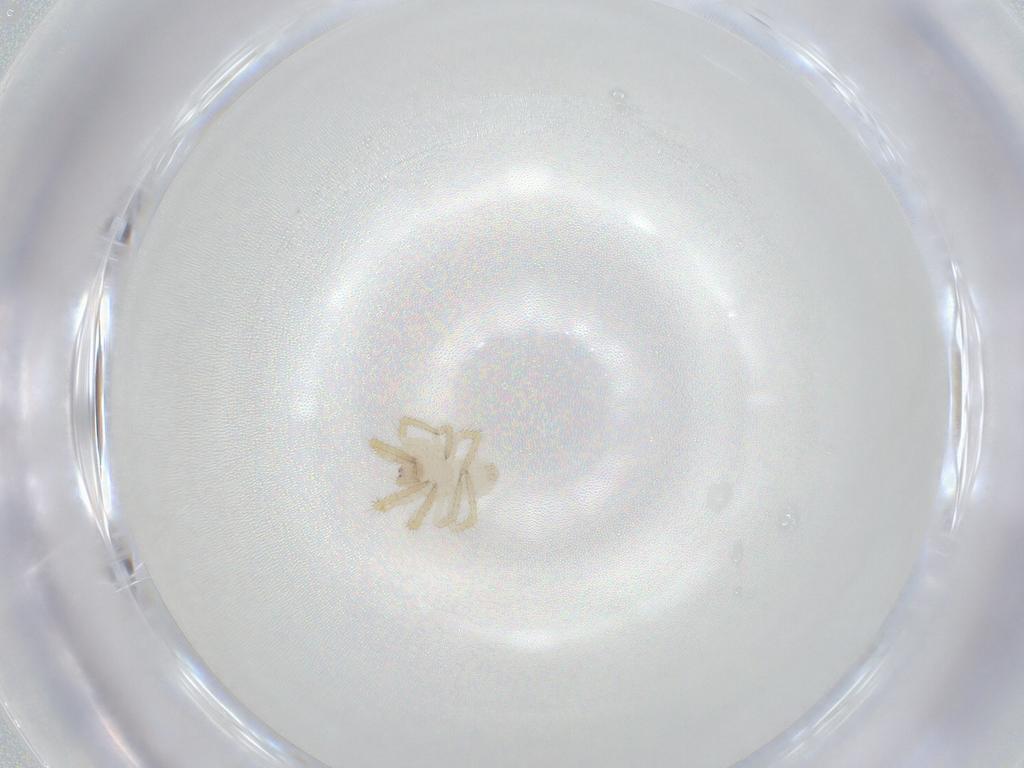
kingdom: Animalia
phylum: Arthropoda
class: Arachnida
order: Araneae
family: Theridiidae
